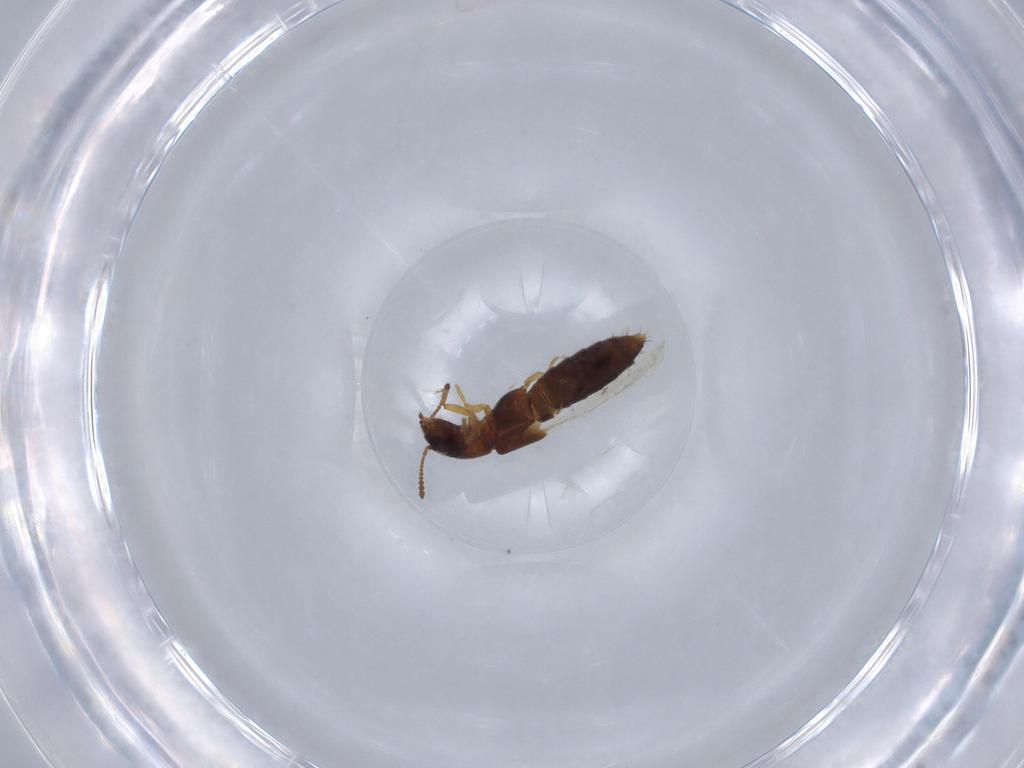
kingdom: Animalia
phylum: Arthropoda
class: Insecta
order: Coleoptera
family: Staphylinidae
